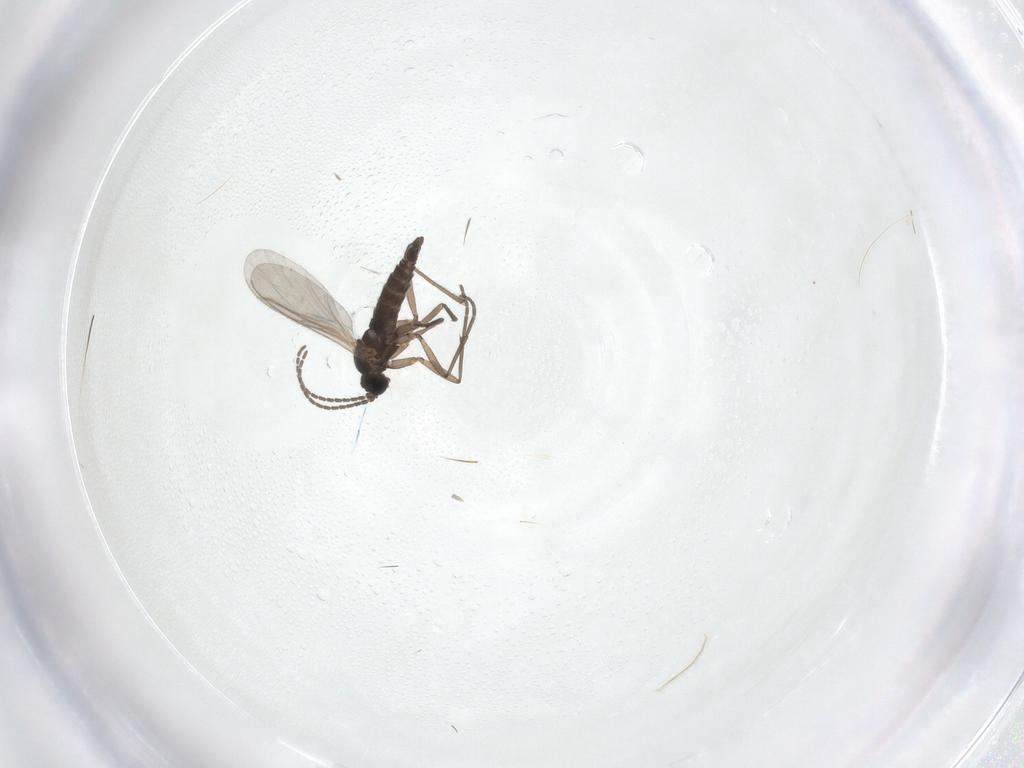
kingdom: Animalia
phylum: Arthropoda
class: Insecta
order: Diptera
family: Sciaridae
